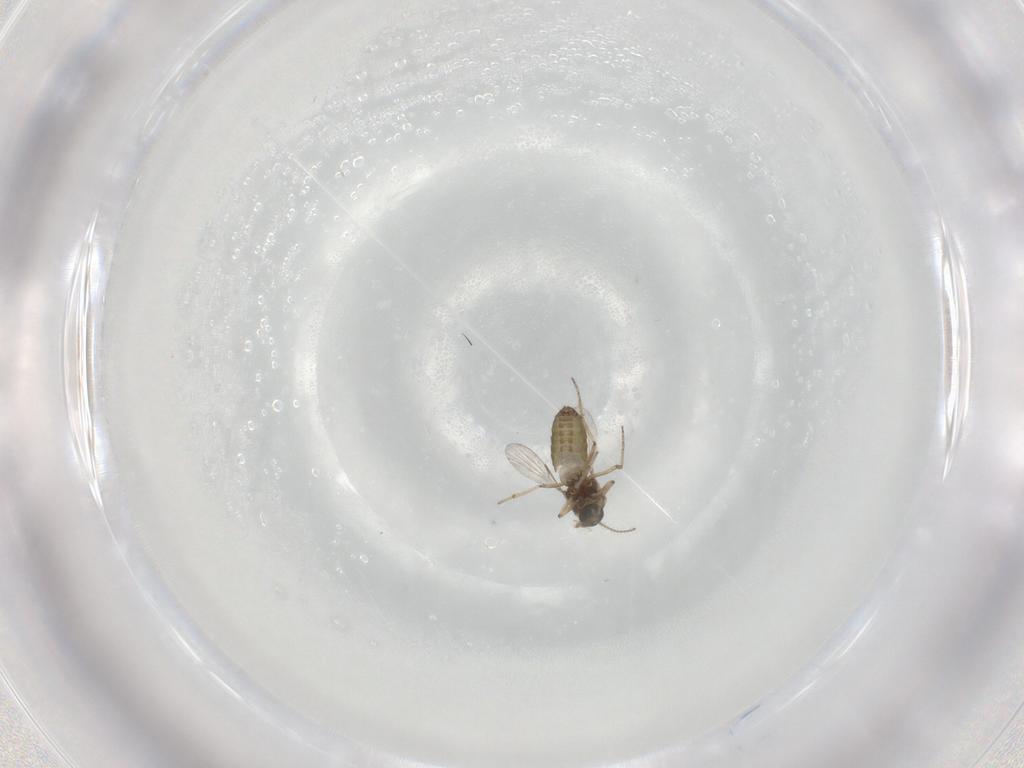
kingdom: Animalia
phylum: Arthropoda
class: Insecta
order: Diptera
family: Ceratopogonidae
